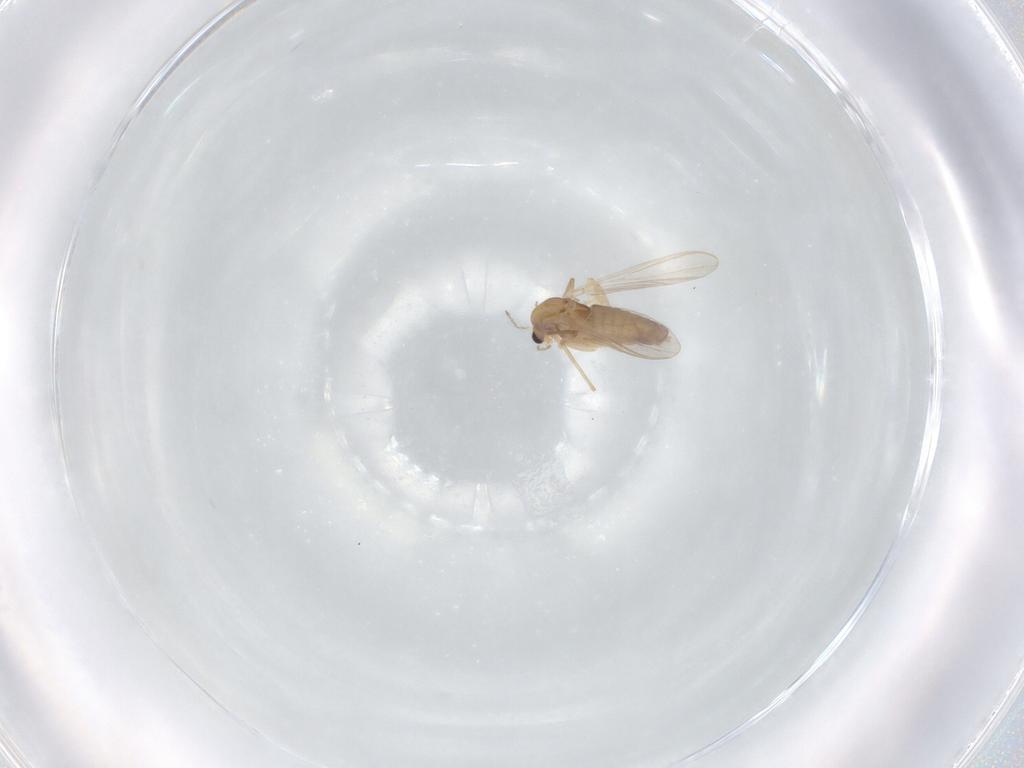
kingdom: Animalia
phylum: Arthropoda
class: Insecta
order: Diptera
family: Chironomidae
